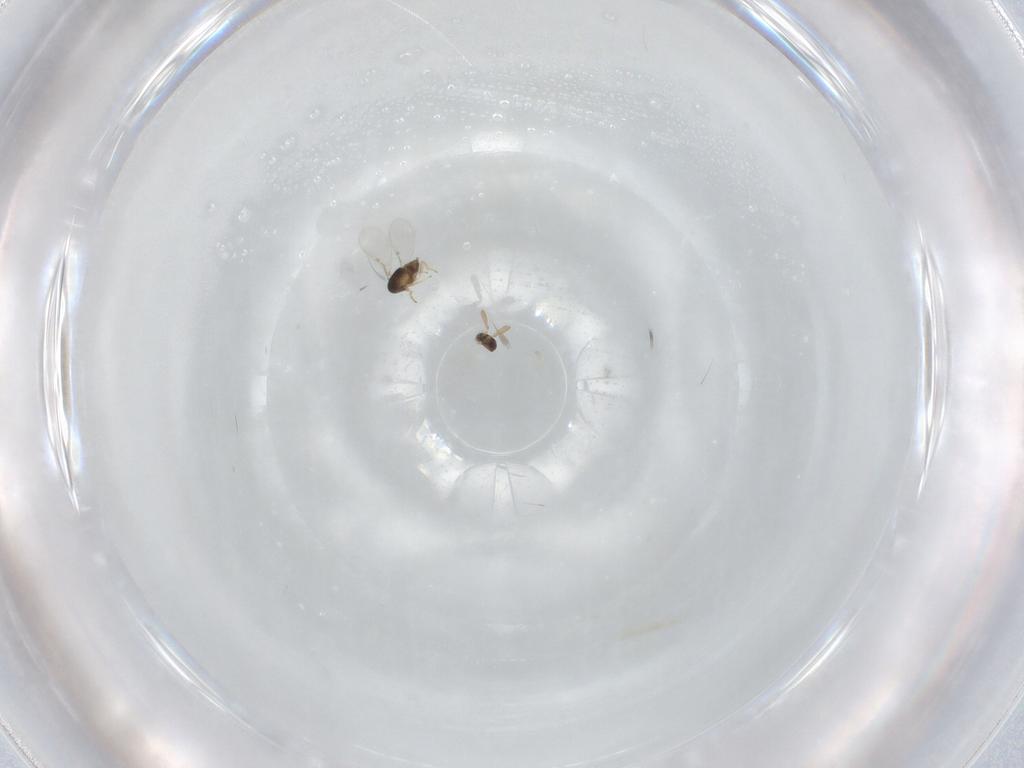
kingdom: Animalia
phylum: Arthropoda
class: Insecta
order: Hymenoptera
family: Encyrtidae
